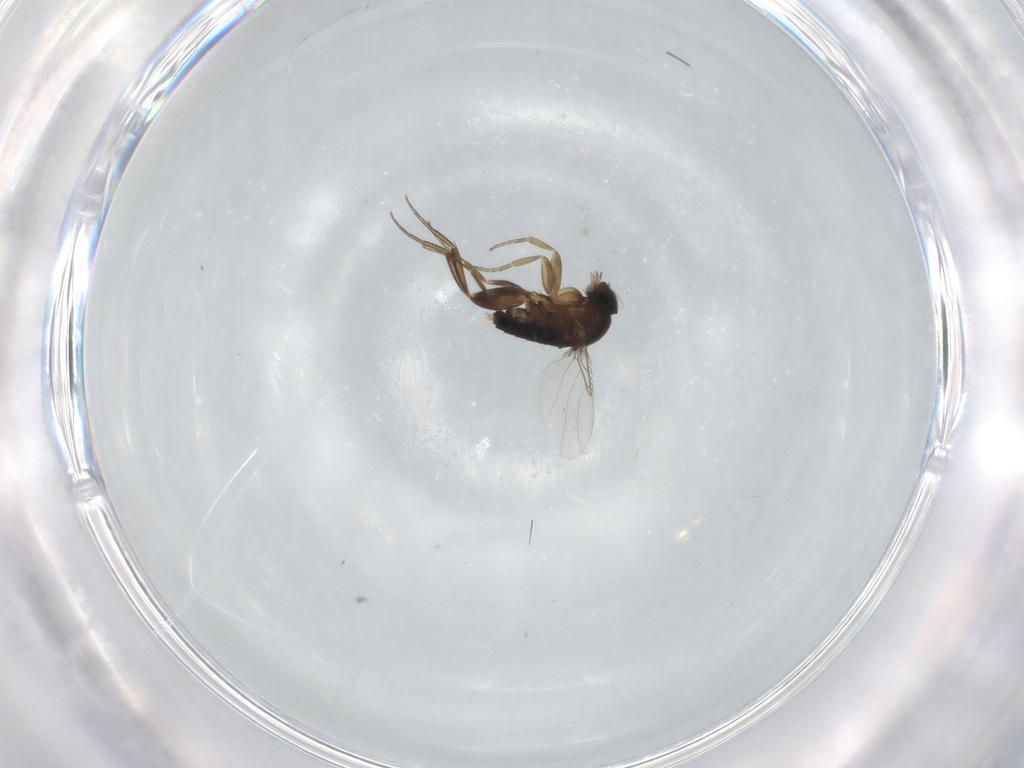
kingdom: Animalia
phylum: Arthropoda
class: Insecta
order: Diptera
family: Phoridae
